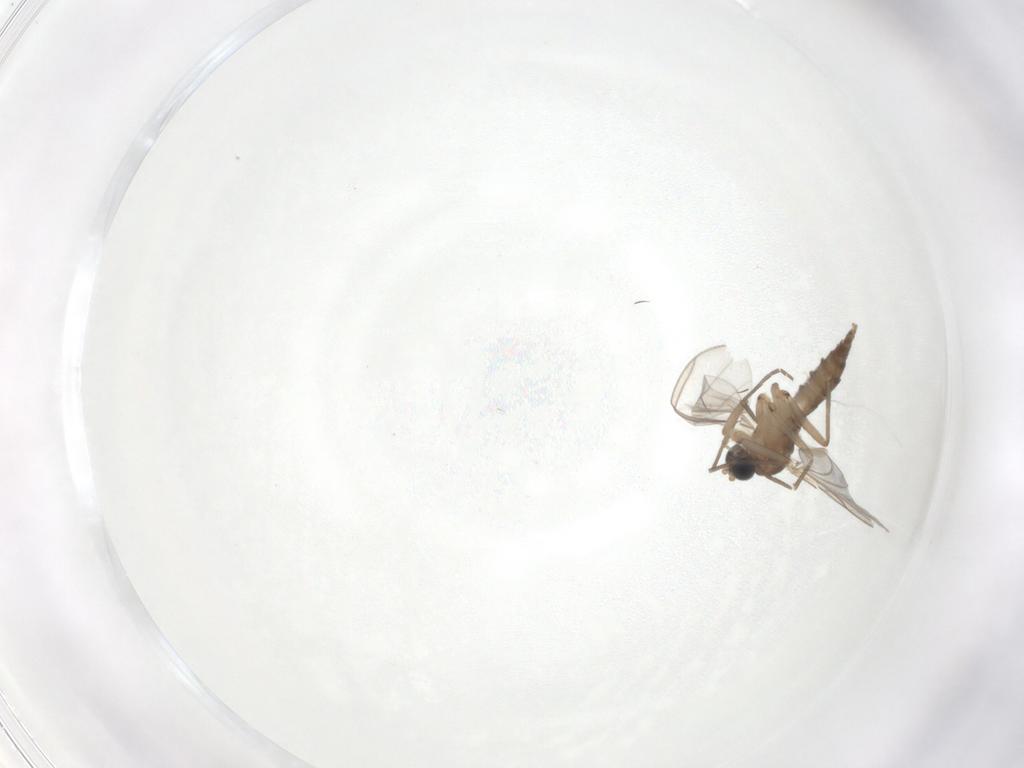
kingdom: Animalia
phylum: Arthropoda
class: Insecta
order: Diptera
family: Sciaridae
